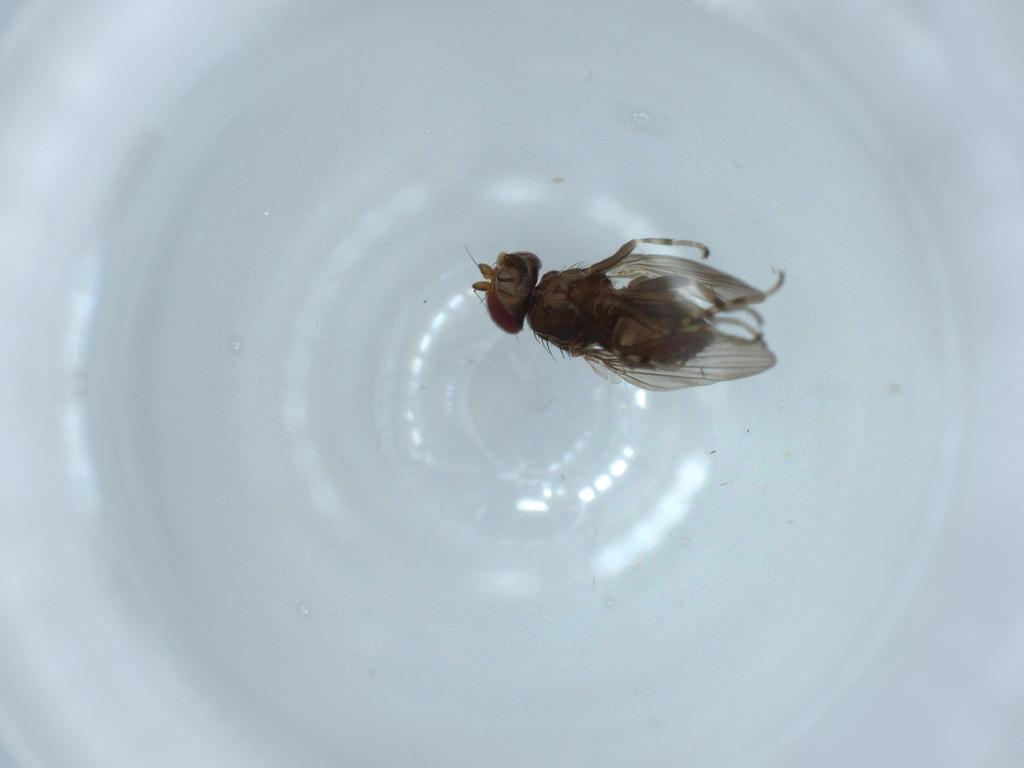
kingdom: Animalia
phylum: Arthropoda
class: Insecta
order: Diptera
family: Heleomyzidae
